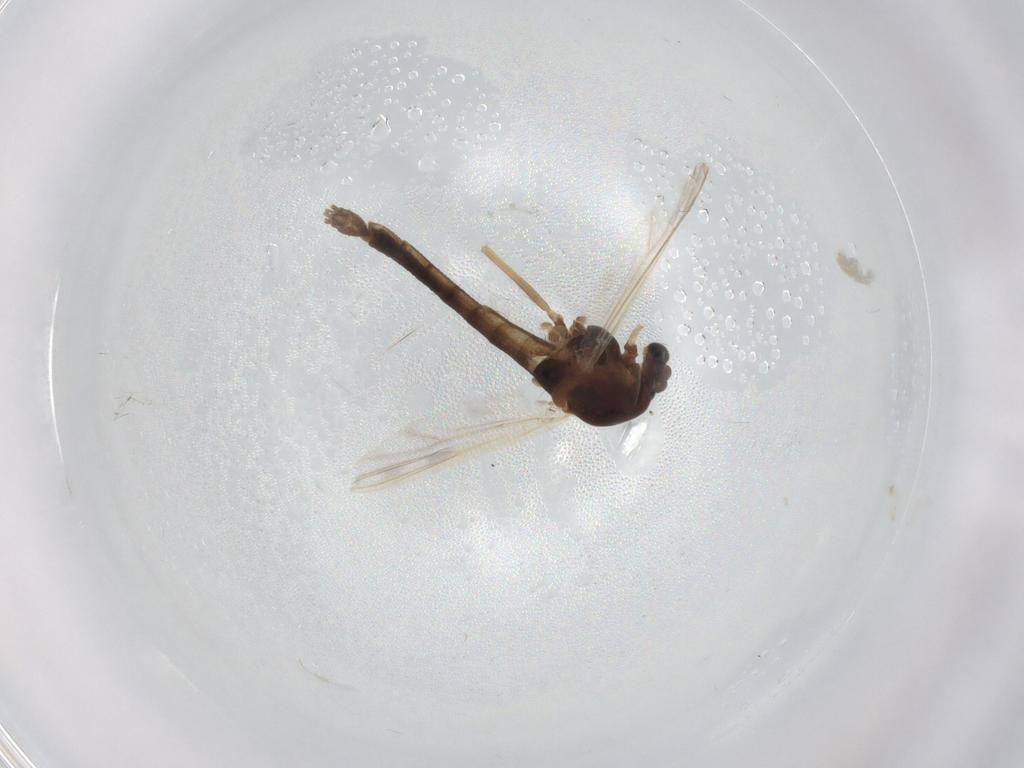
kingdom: Animalia
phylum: Arthropoda
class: Insecta
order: Diptera
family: Chironomidae
